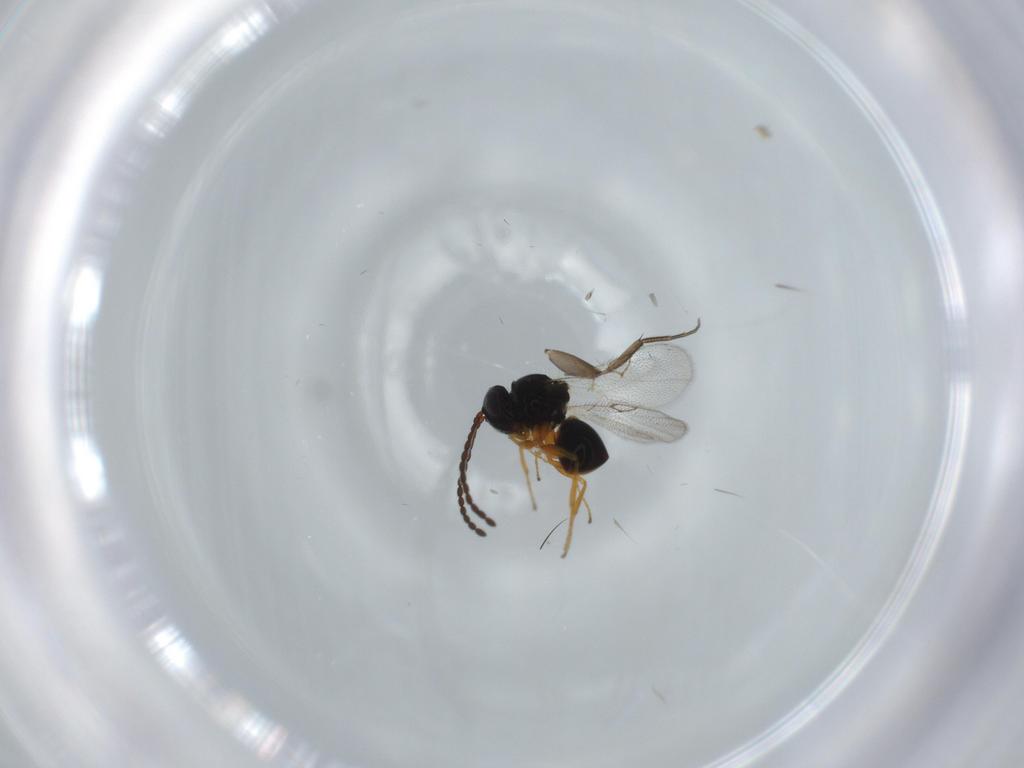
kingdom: Animalia
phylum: Arthropoda
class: Insecta
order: Hymenoptera
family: Figitidae
